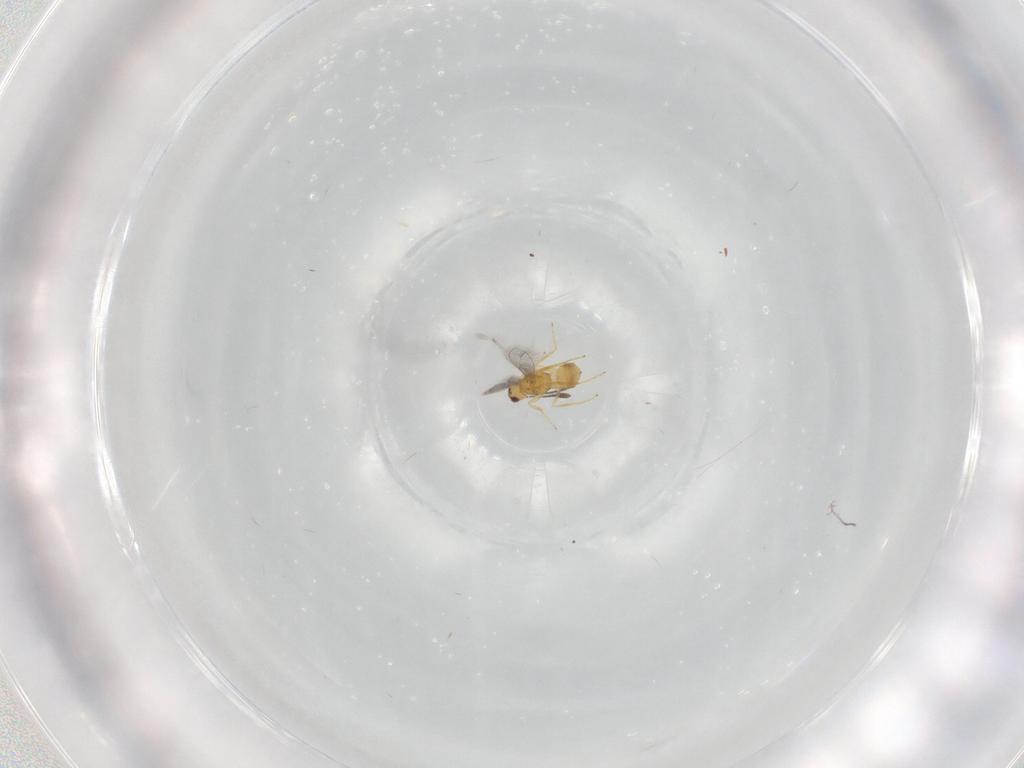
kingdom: Animalia
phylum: Arthropoda
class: Insecta
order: Hymenoptera
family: Mymaridae
